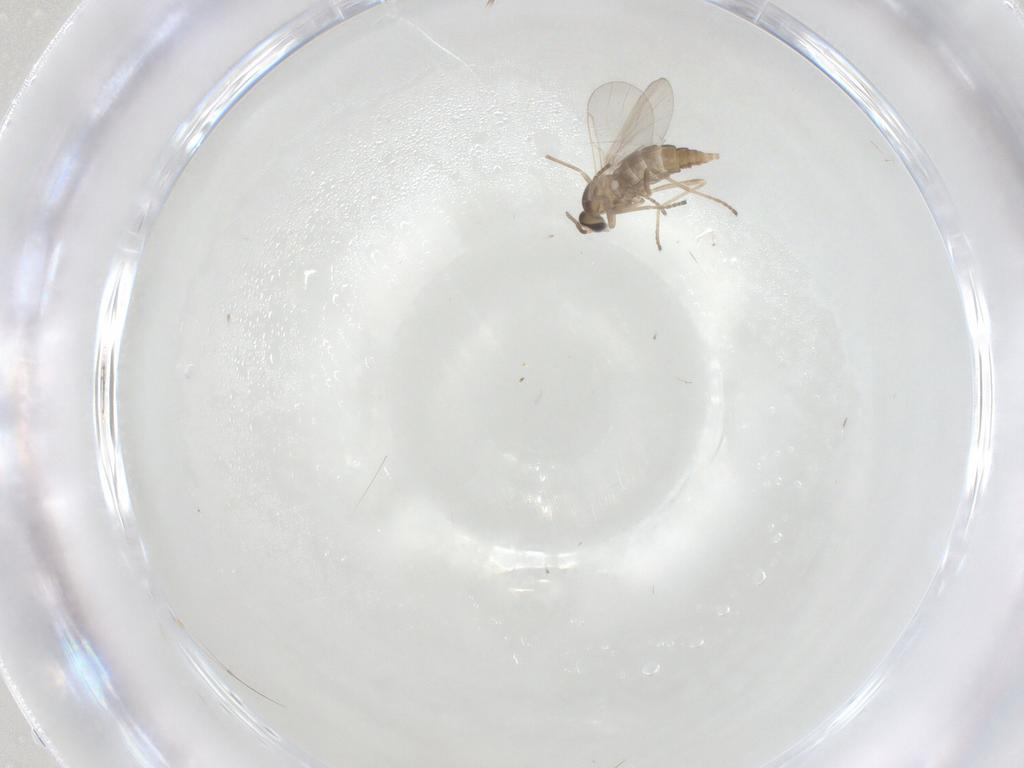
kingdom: Animalia
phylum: Arthropoda
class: Insecta
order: Diptera
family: Cecidomyiidae
